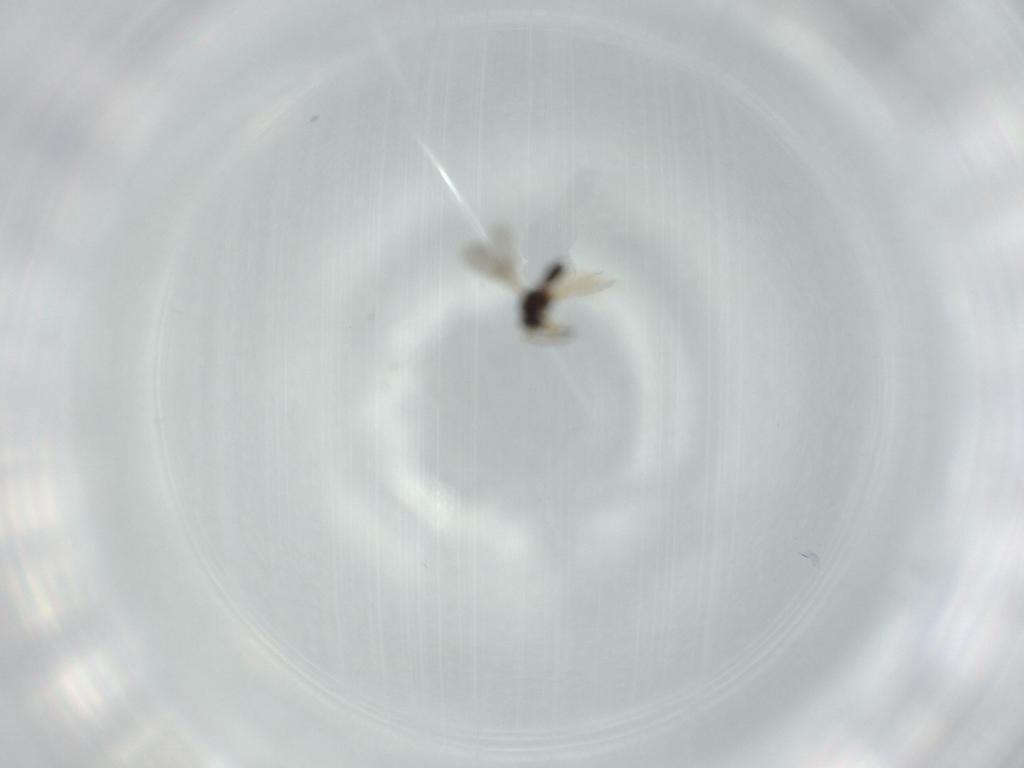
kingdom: Animalia
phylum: Arthropoda
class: Insecta
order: Hymenoptera
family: Scelionidae
